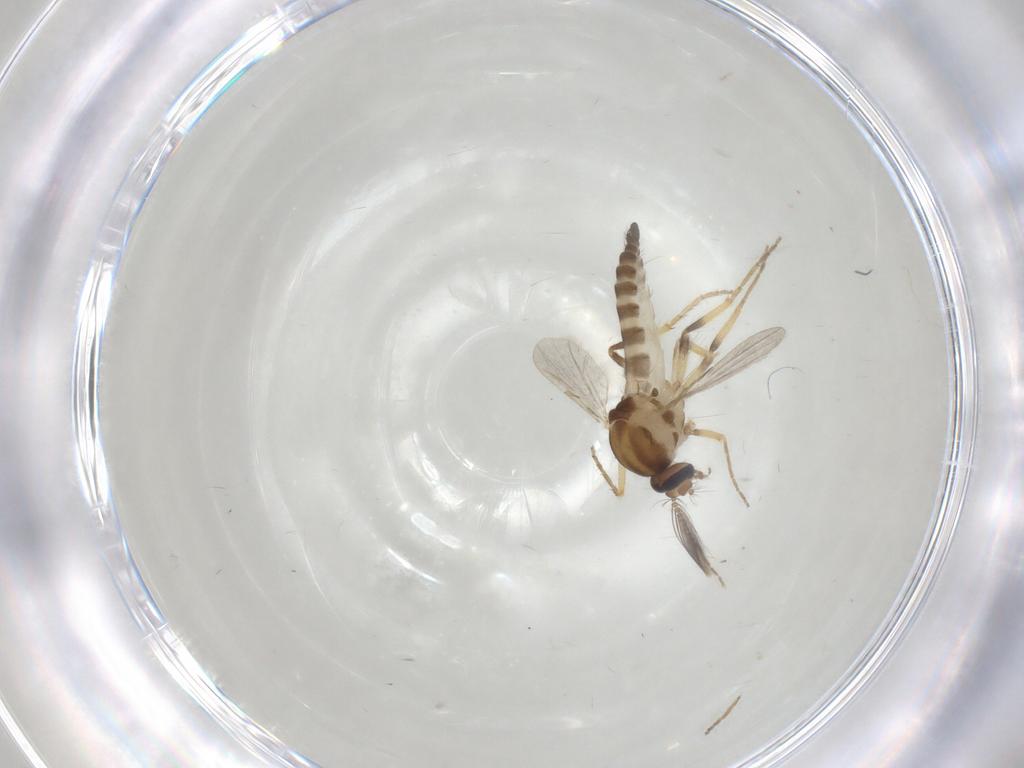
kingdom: Animalia
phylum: Arthropoda
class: Insecta
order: Diptera
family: Ceratopogonidae
